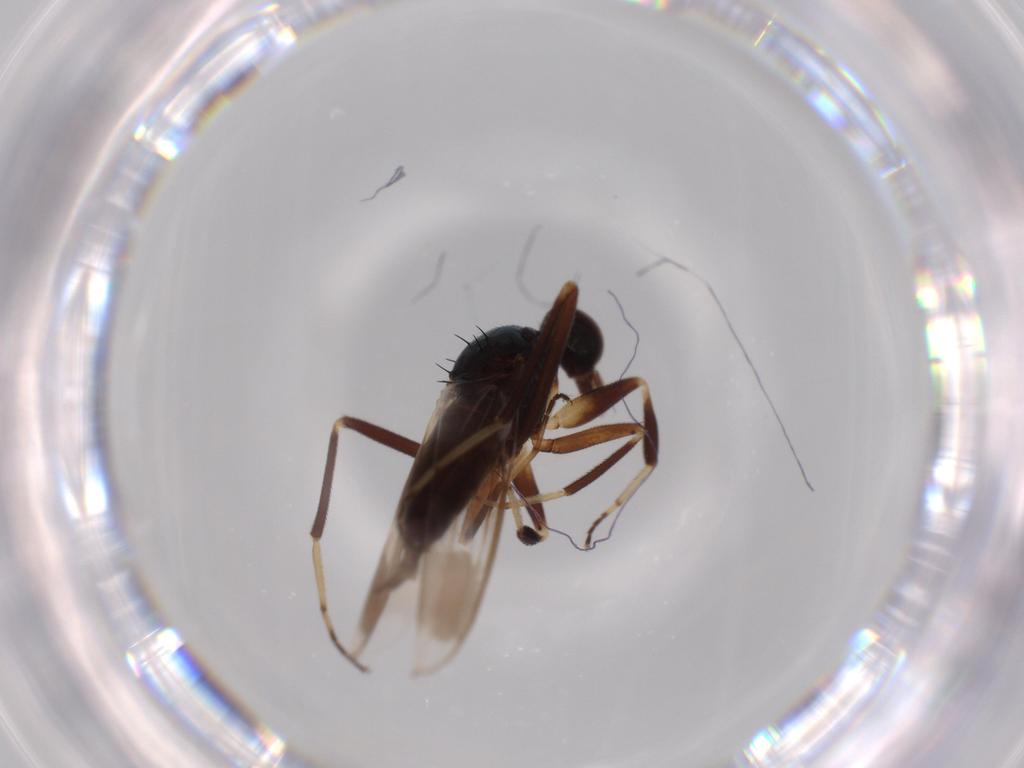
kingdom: Animalia
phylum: Arthropoda
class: Insecta
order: Diptera
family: Hybotidae
